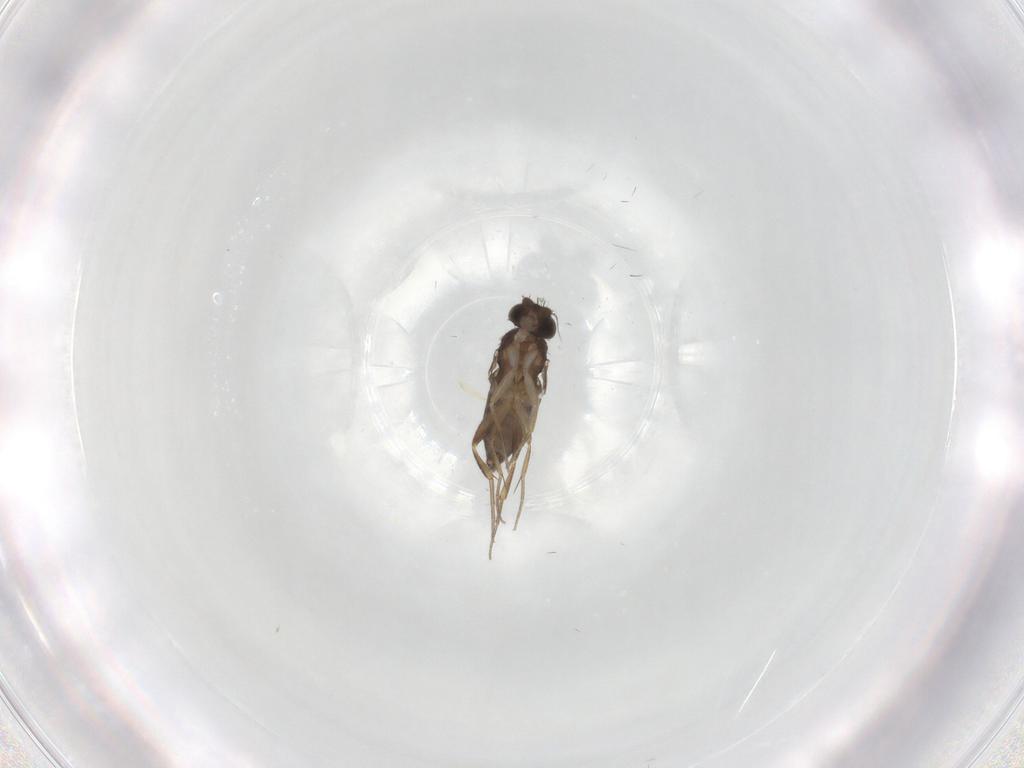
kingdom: Animalia
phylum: Arthropoda
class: Insecta
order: Diptera
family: Phoridae
